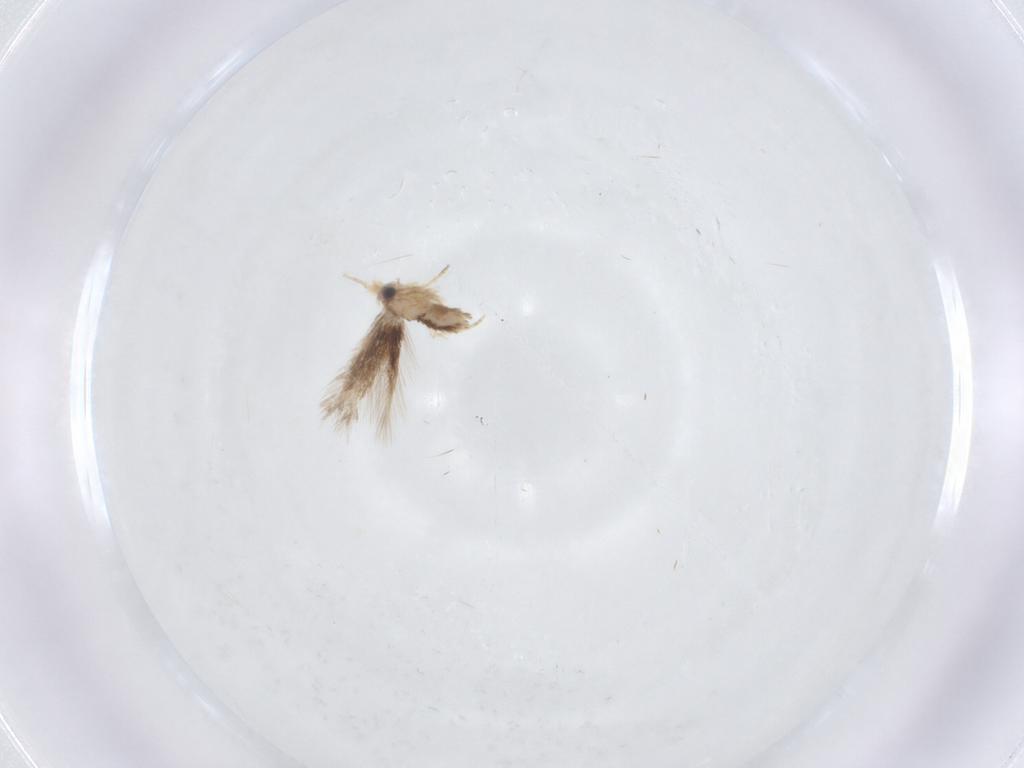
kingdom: Animalia
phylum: Arthropoda
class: Insecta
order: Lepidoptera
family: Nepticulidae
